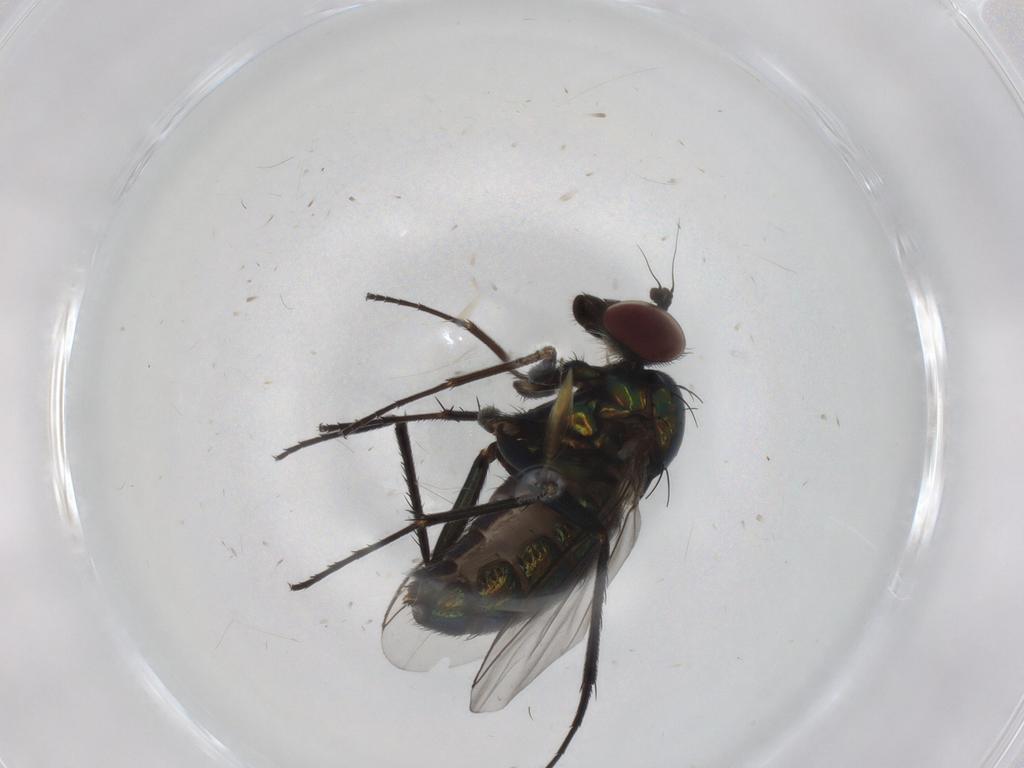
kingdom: Animalia
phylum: Arthropoda
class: Insecta
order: Diptera
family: Dolichopodidae
